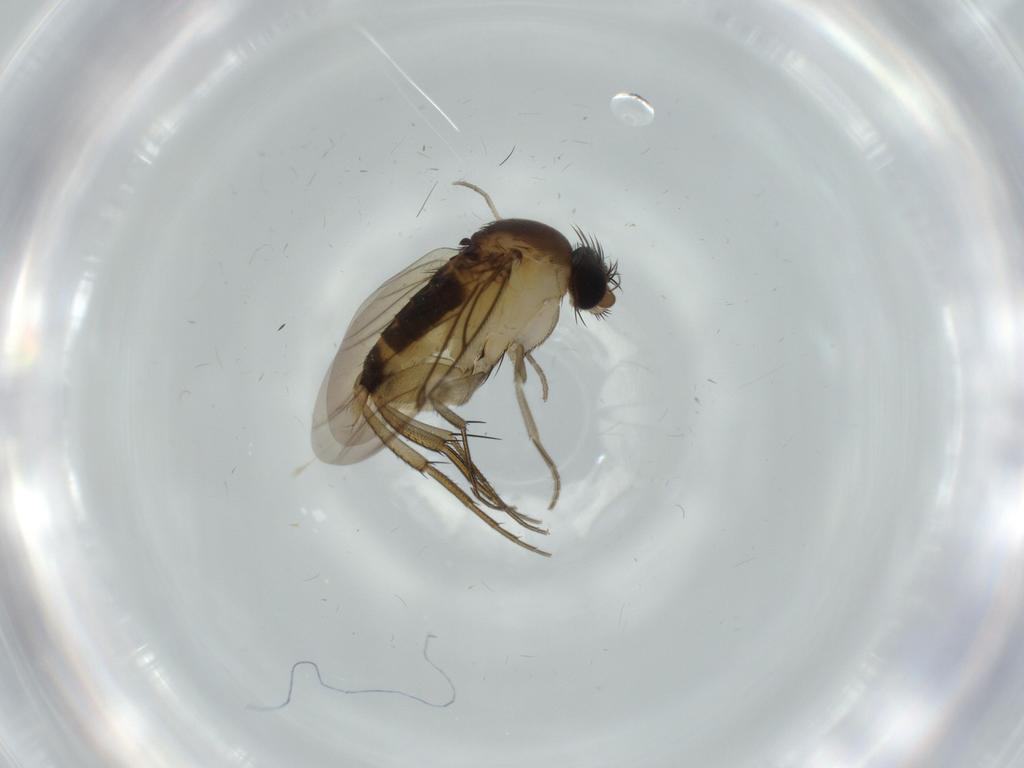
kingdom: Animalia
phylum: Arthropoda
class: Insecta
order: Diptera
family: Phoridae
